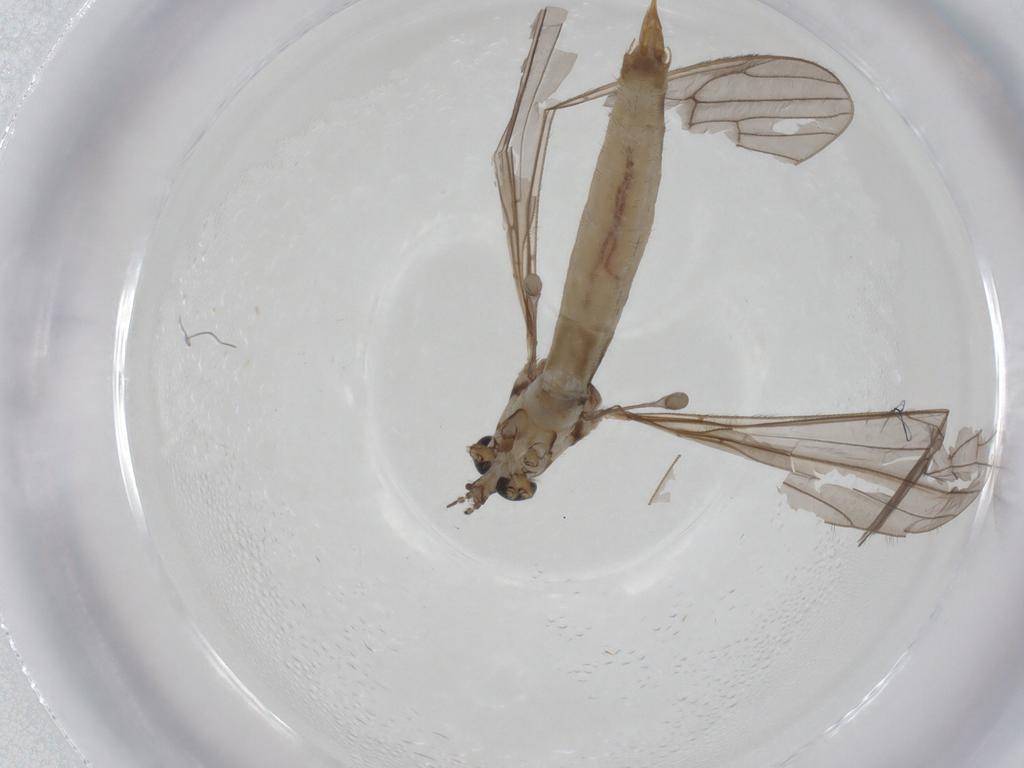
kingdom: Animalia
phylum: Arthropoda
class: Insecta
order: Diptera
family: Limoniidae
